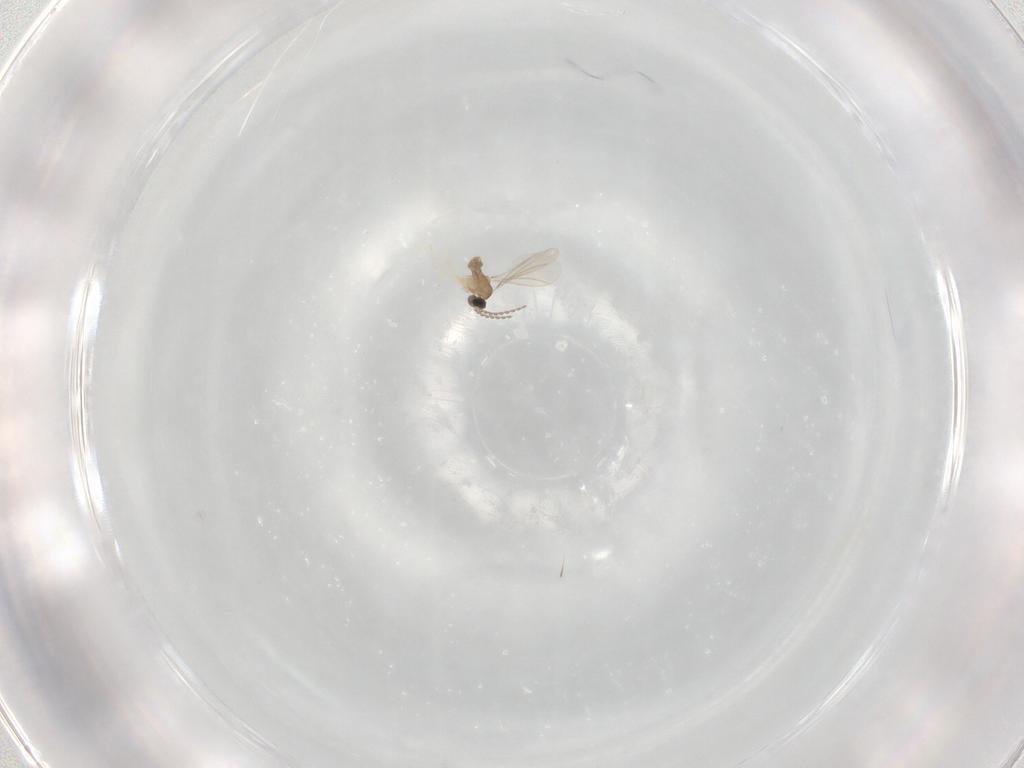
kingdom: Animalia
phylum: Arthropoda
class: Insecta
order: Diptera
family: Cecidomyiidae
